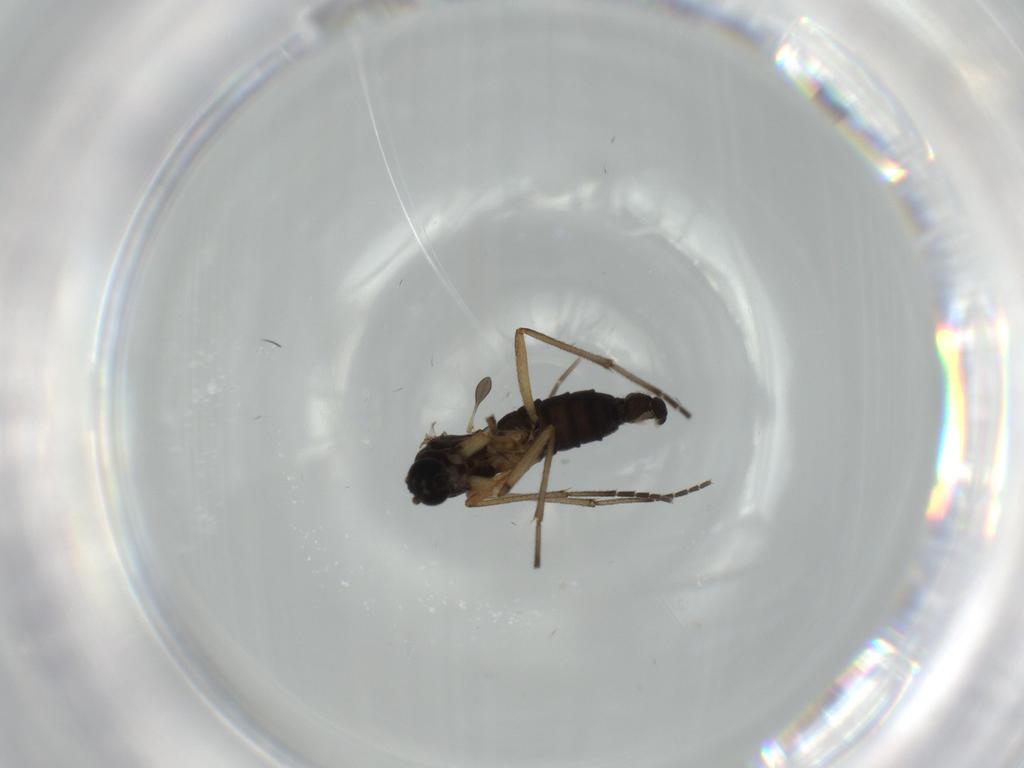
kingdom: Animalia
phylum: Arthropoda
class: Insecta
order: Diptera
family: Sciaridae
